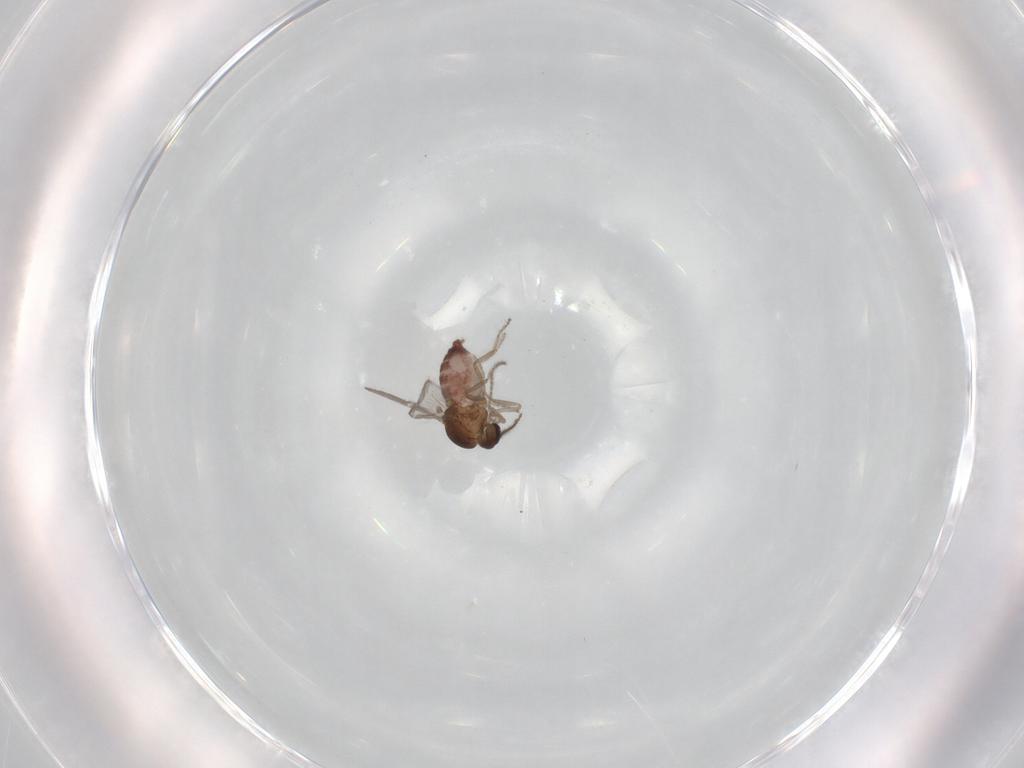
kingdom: Animalia
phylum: Arthropoda
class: Insecta
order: Diptera
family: Ceratopogonidae
